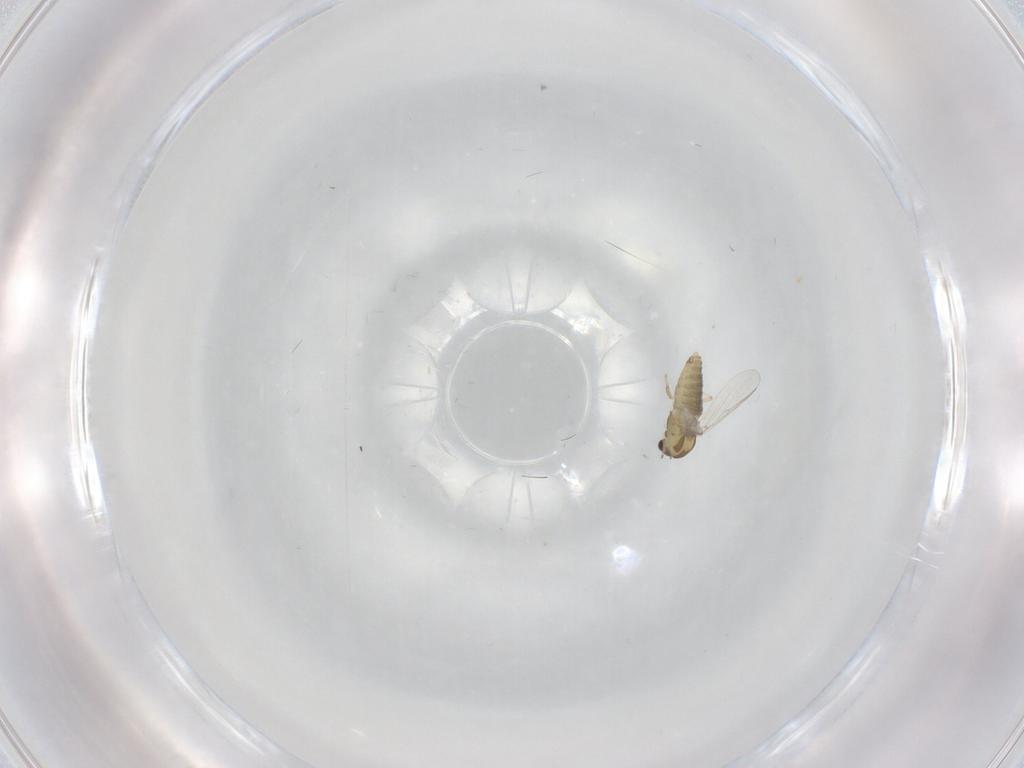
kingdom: Animalia
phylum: Arthropoda
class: Insecta
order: Diptera
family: Chironomidae
